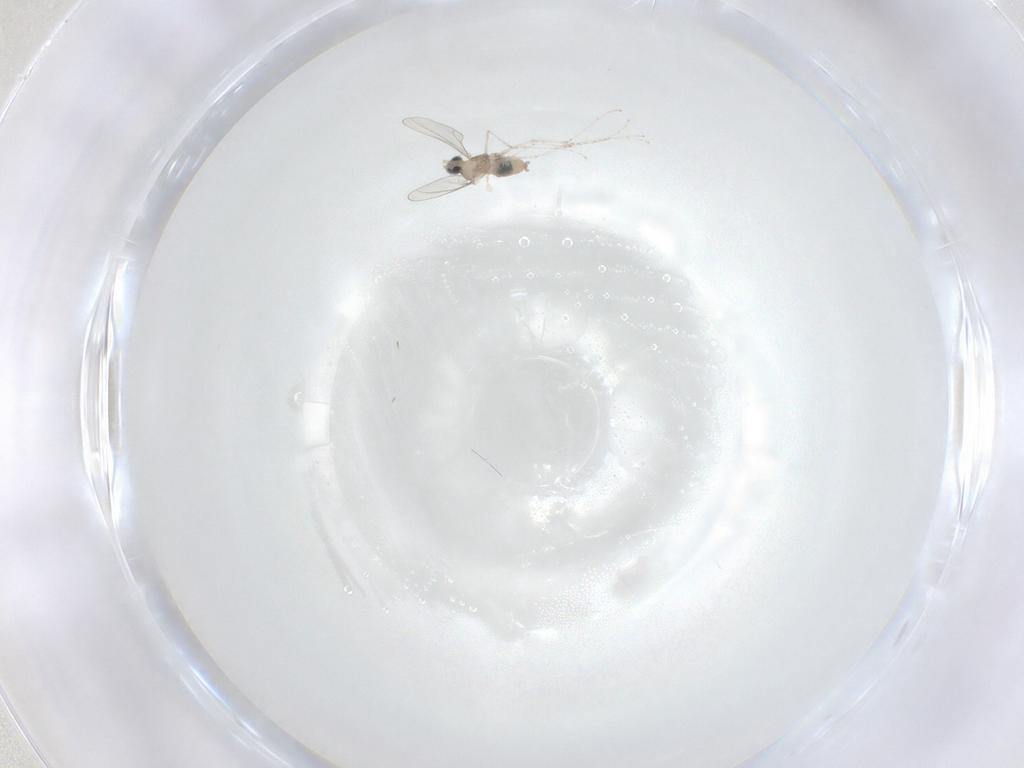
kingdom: Animalia
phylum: Arthropoda
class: Insecta
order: Diptera
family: Cecidomyiidae
